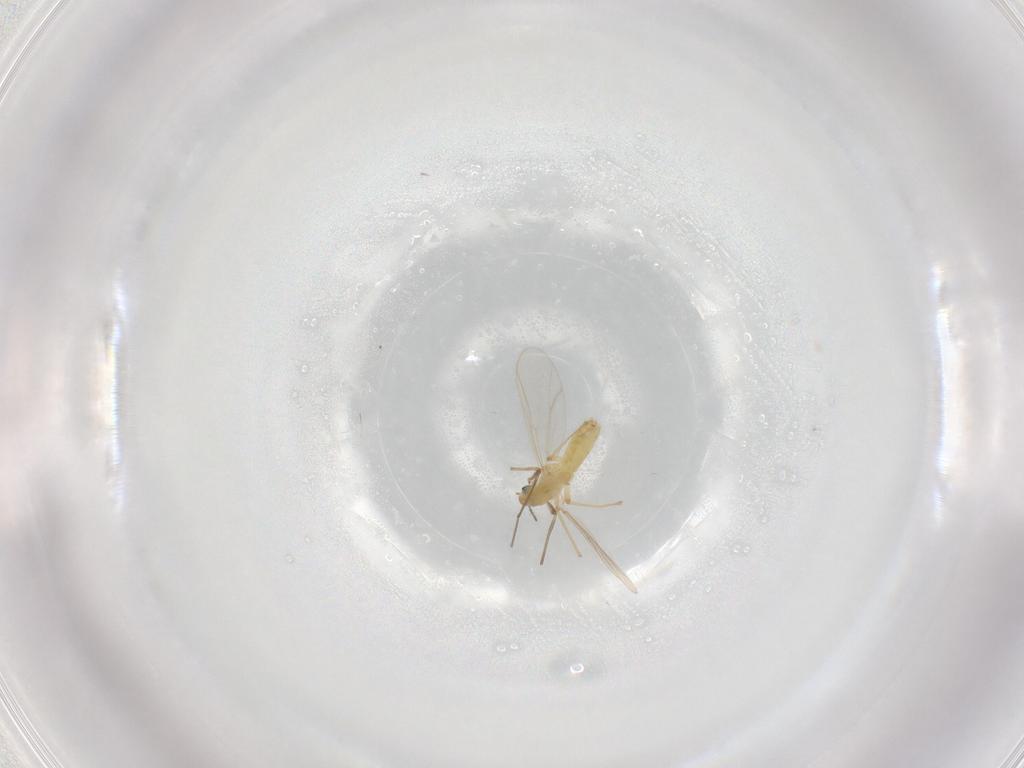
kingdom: Animalia
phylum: Arthropoda
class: Insecta
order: Diptera
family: Chironomidae
